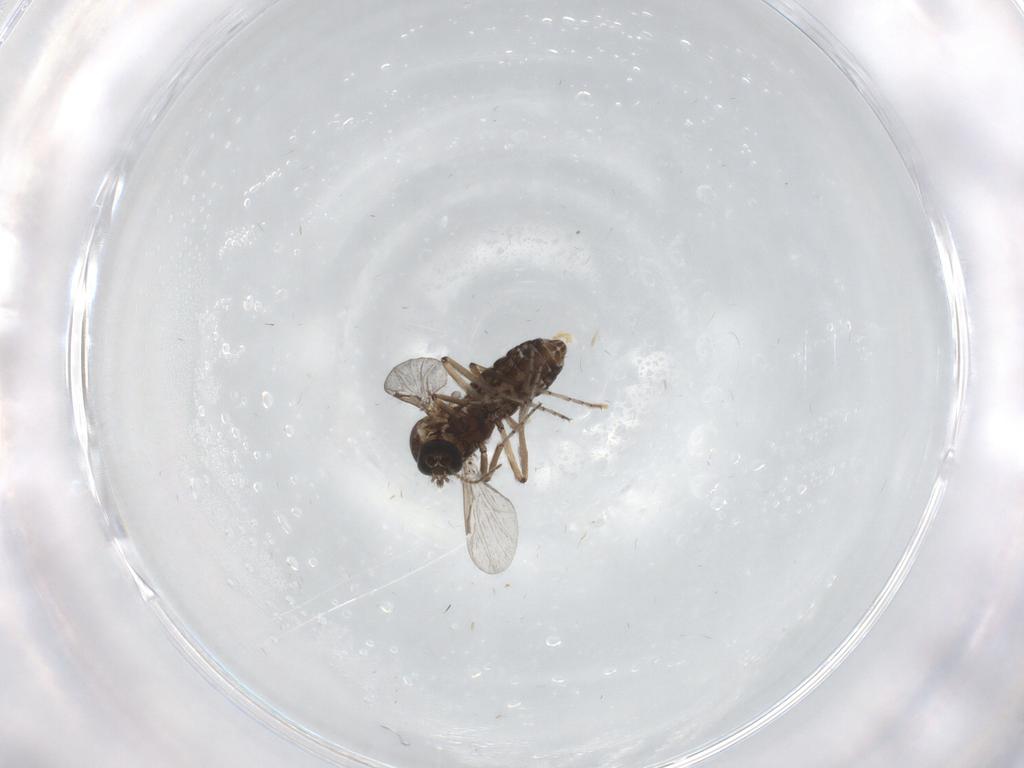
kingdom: Animalia
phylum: Arthropoda
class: Insecta
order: Diptera
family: Ceratopogonidae
